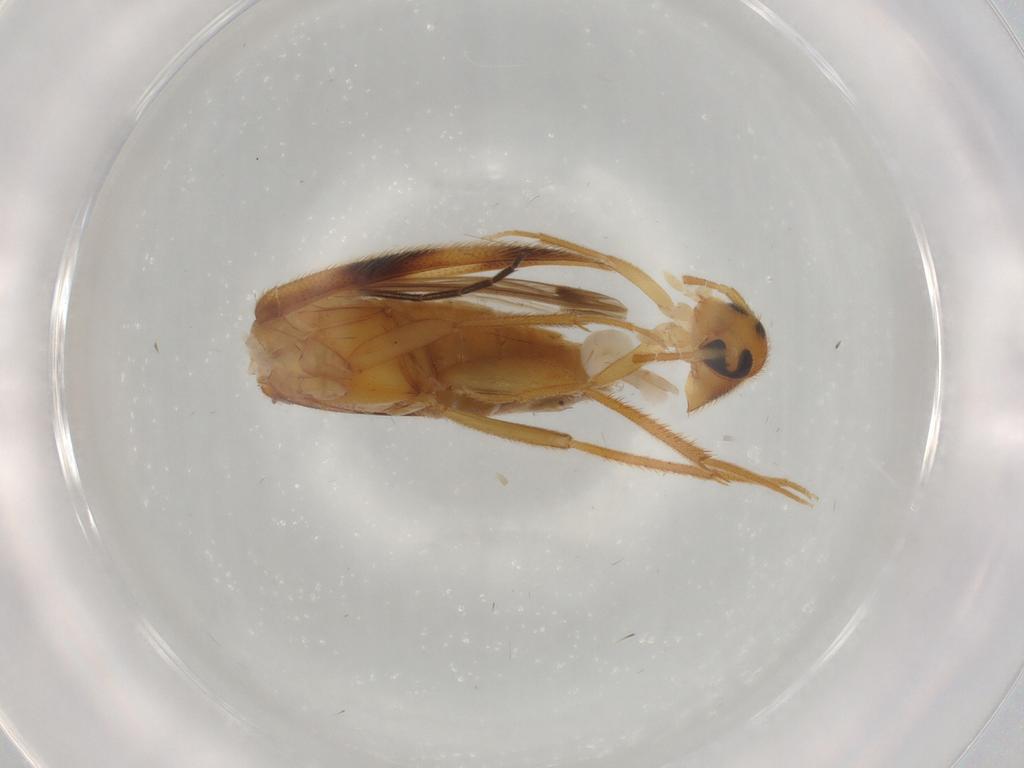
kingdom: Animalia
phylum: Arthropoda
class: Insecta
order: Coleoptera
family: Scraptiidae
